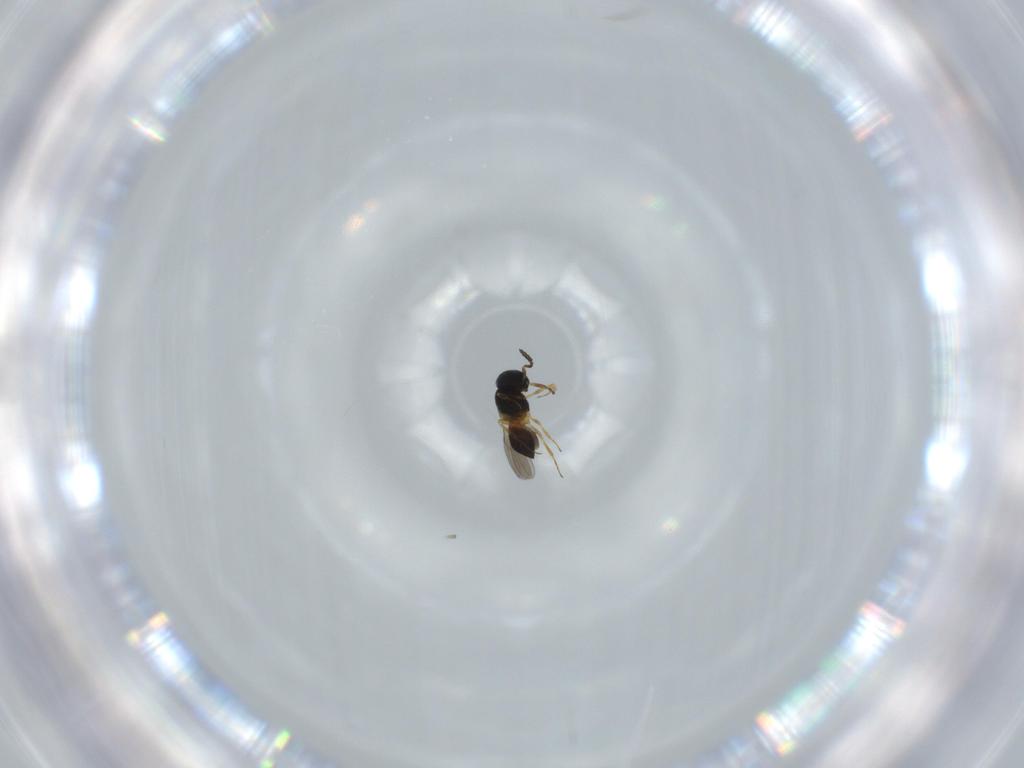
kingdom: Animalia
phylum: Arthropoda
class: Insecta
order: Hymenoptera
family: Scelionidae
